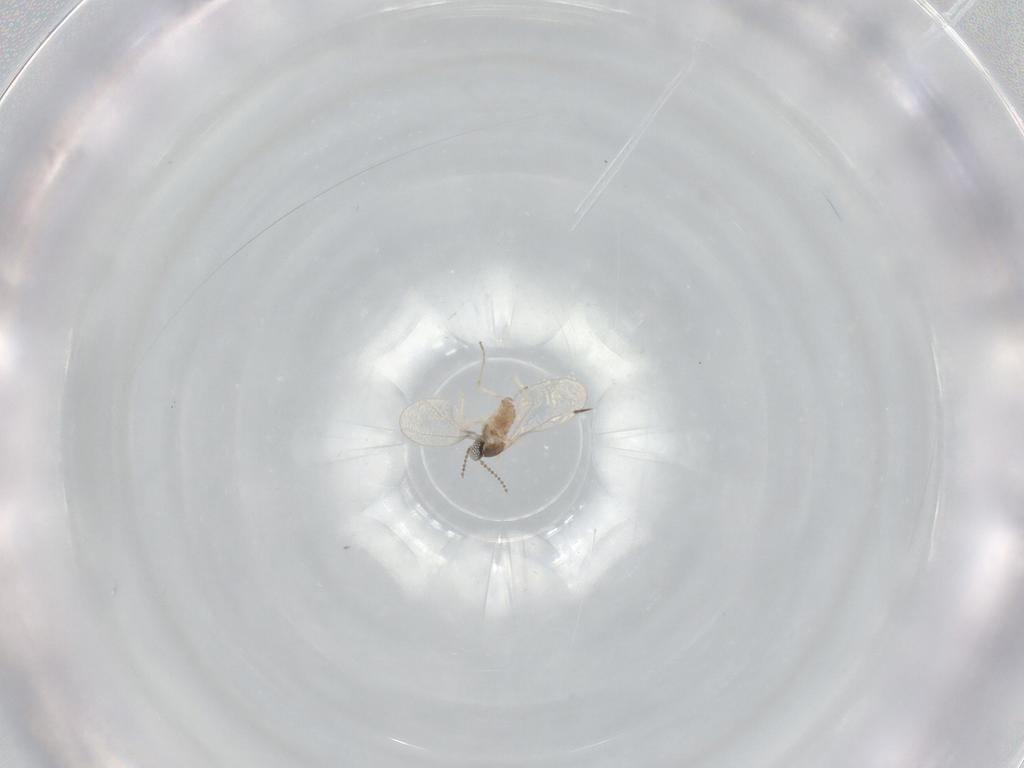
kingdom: Animalia
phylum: Arthropoda
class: Insecta
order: Diptera
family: Cecidomyiidae
